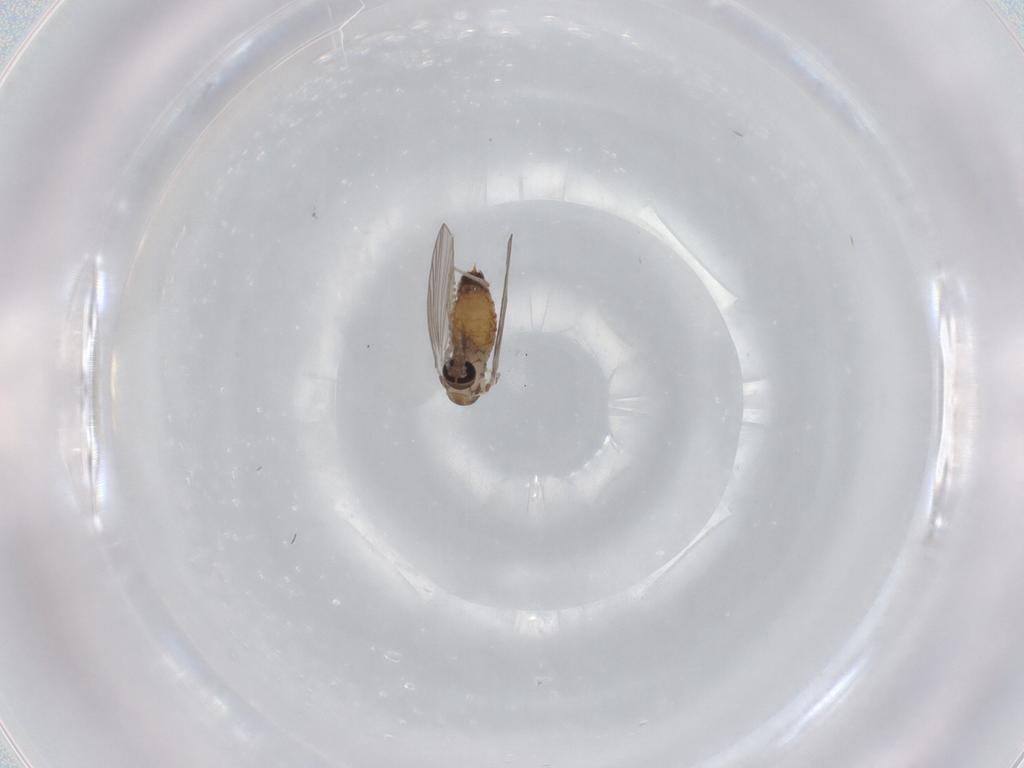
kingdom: Animalia
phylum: Arthropoda
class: Insecta
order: Diptera
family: Psychodidae
